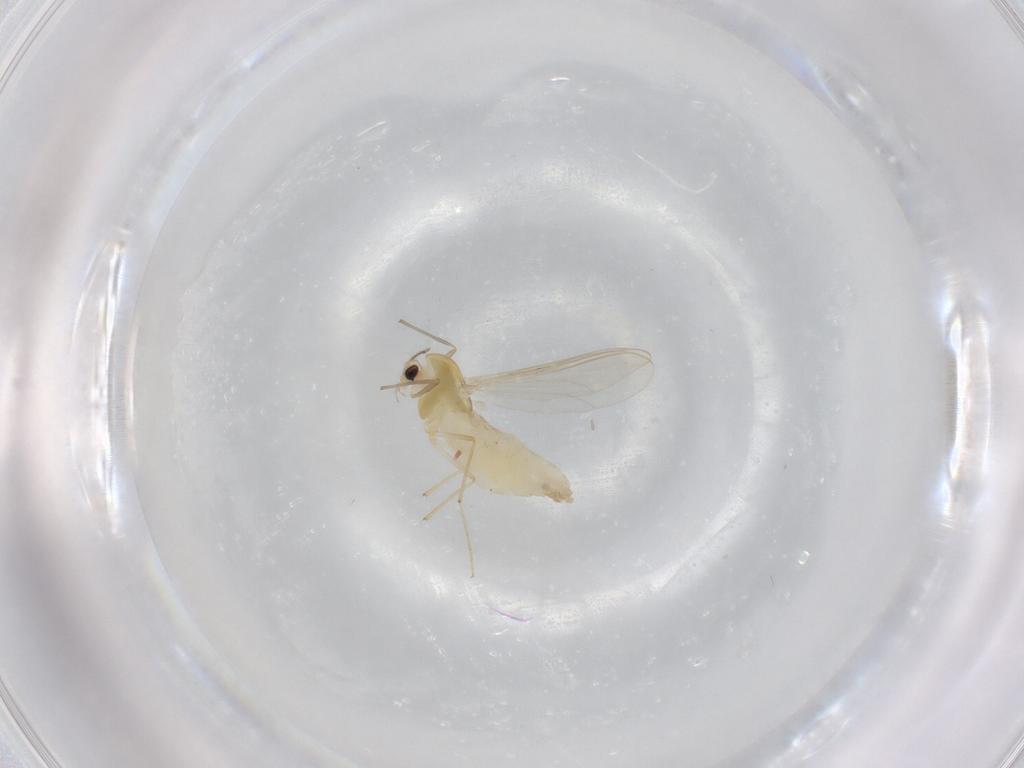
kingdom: Animalia
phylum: Arthropoda
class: Insecta
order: Diptera
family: Chironomidae
